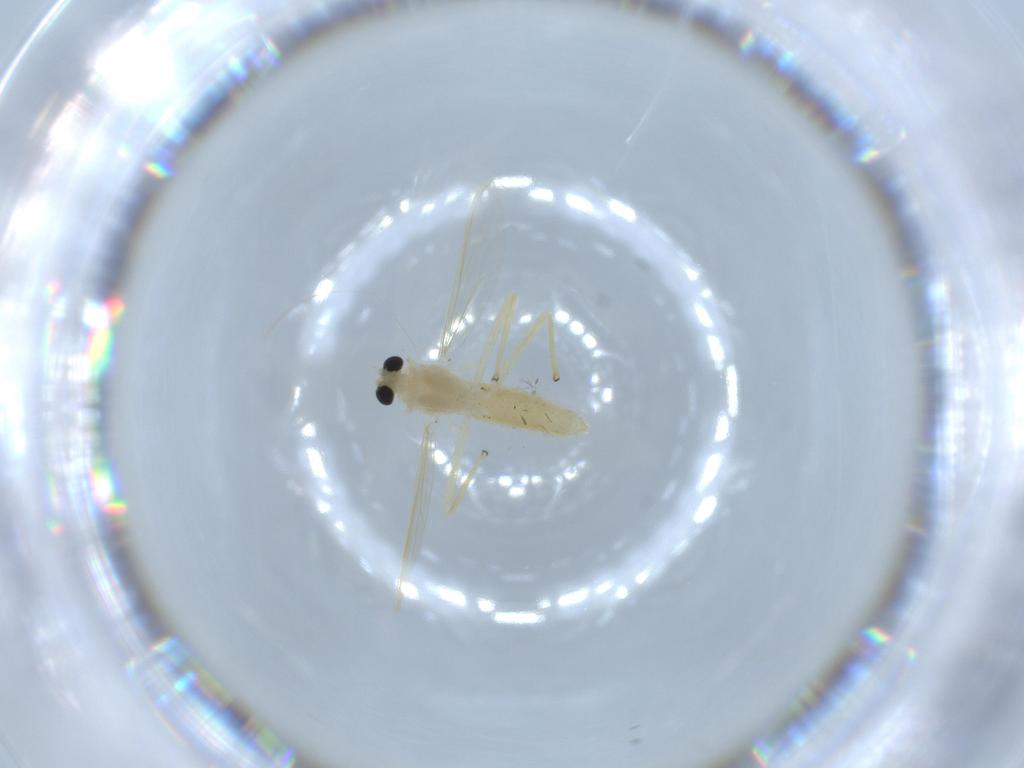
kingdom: Animalia
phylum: Arthropoda
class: Insecta
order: Diptera
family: Chironomidae
